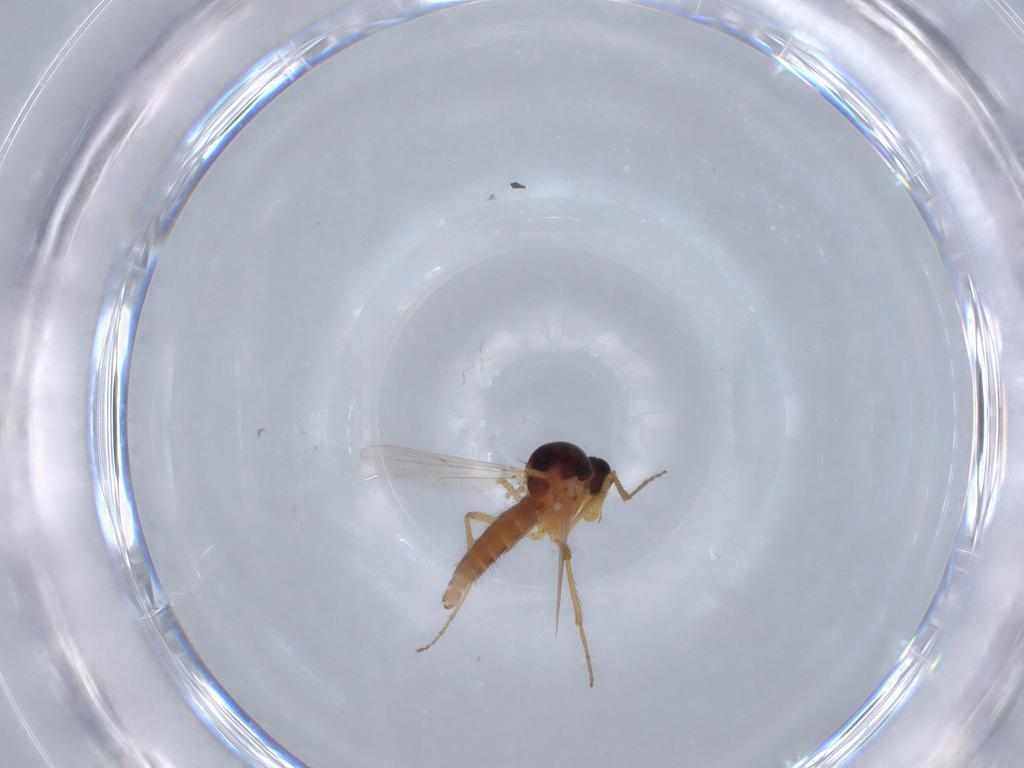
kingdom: Animalia
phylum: Arthropoda
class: Insecta
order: Diptera
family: Ceratopogonidae
